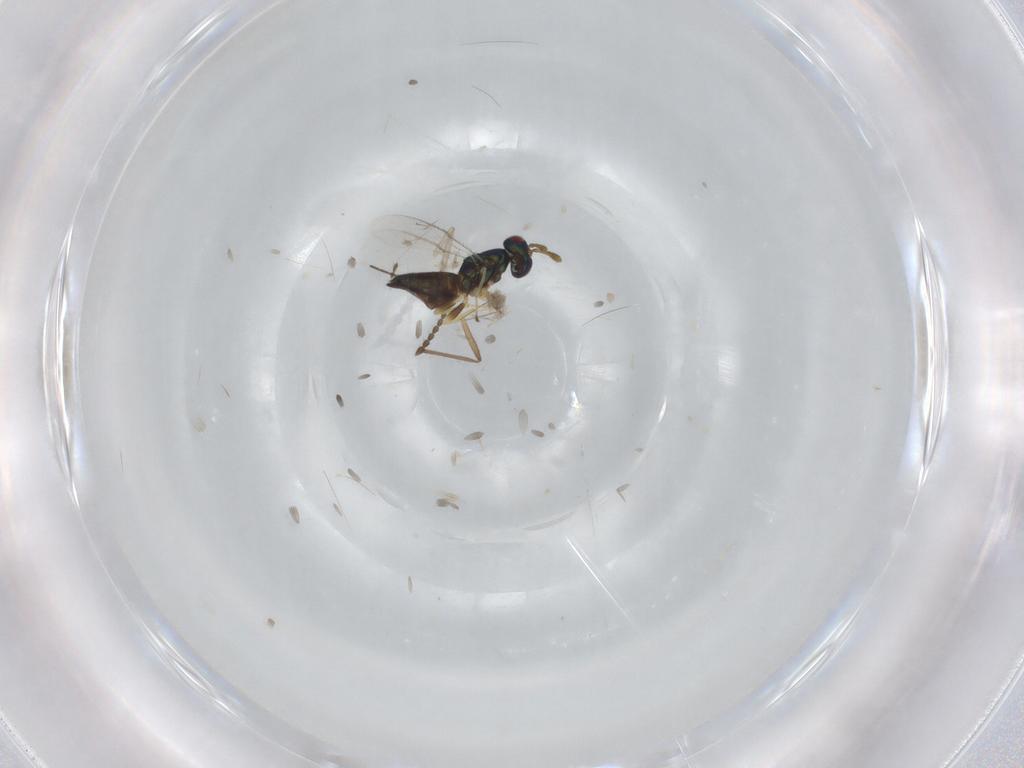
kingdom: Animalia
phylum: Arthropoda
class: Insecta
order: Hymenoptera
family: Pteromalidae
